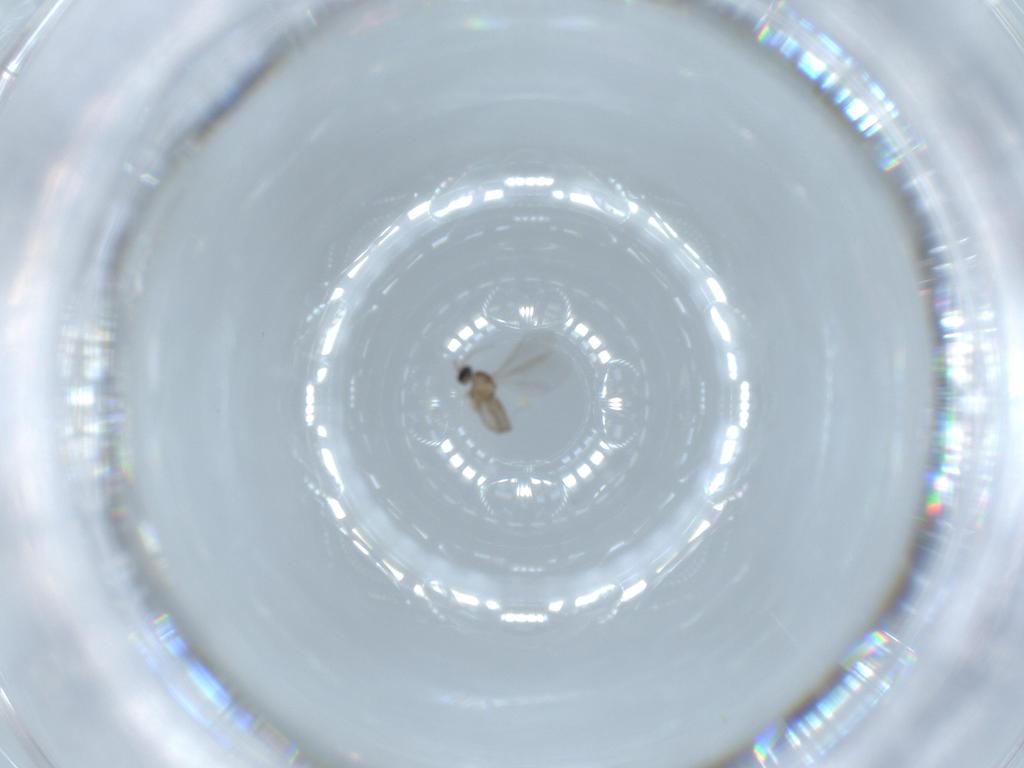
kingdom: Animalia
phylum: Arthropoda
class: Insecta
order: Diptera
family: Cecidomyiidae
